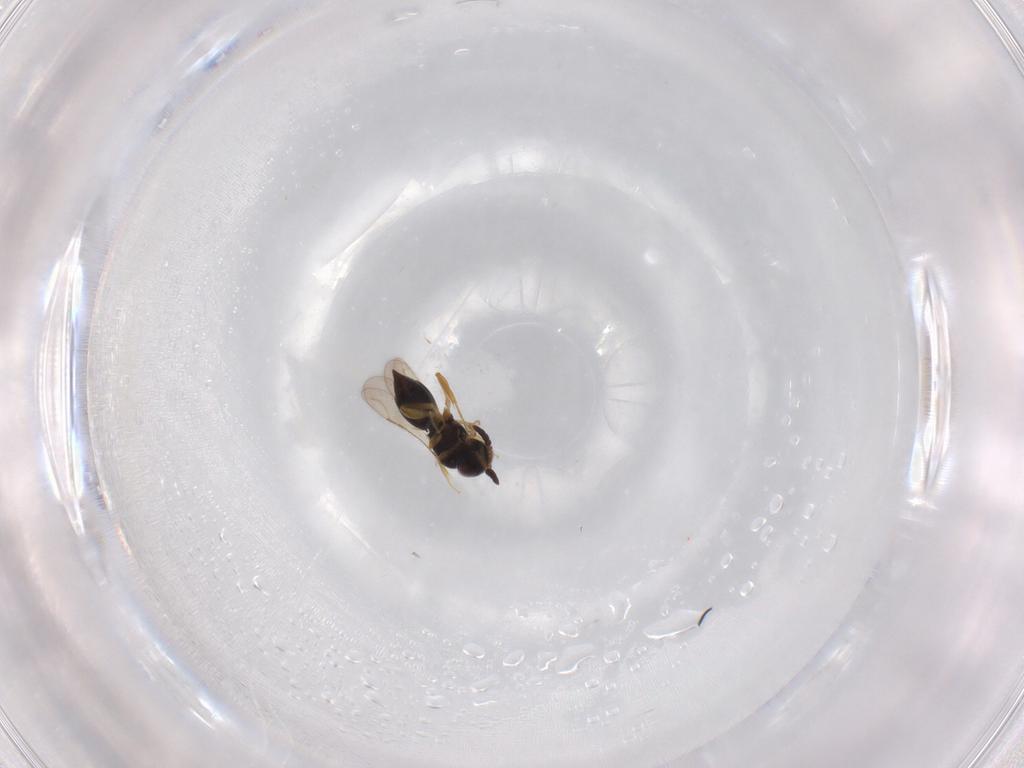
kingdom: Animalia
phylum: Arthropoda
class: Insecta
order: Hymenoptera
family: Ceraphronidae
